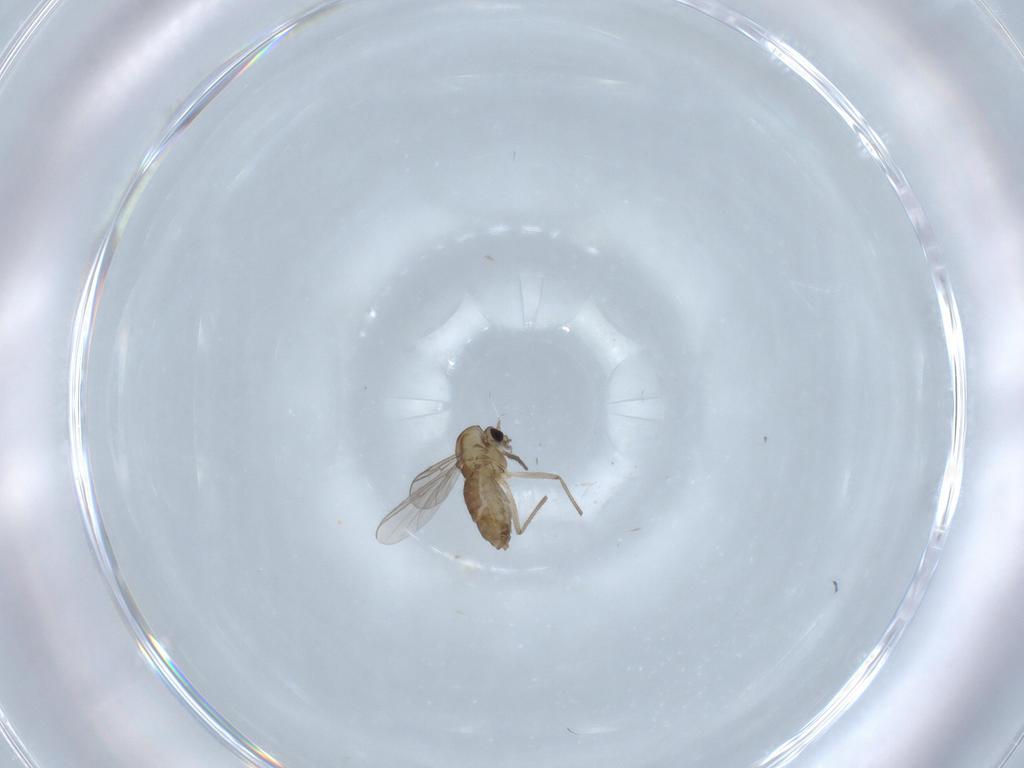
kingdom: Animalia
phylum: Arthropoda
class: Insecta
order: Diptera
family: Chironomidae
